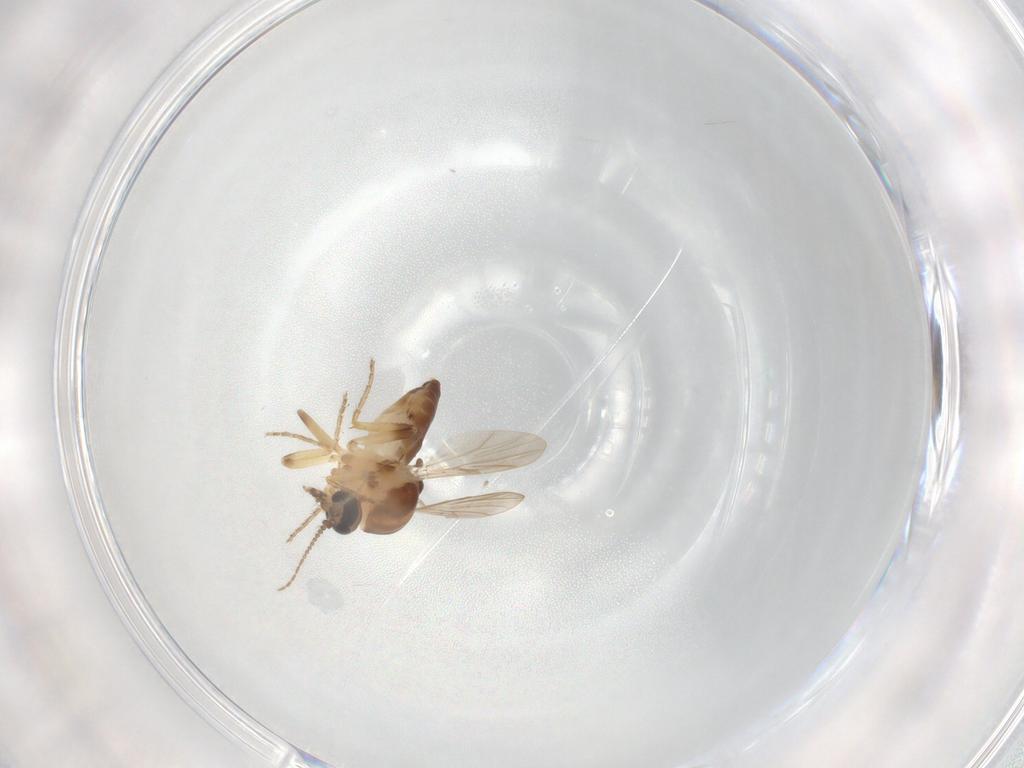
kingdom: Animalia
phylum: Arthropoda
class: Insecta
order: Diptera
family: Ceratopogonidae
